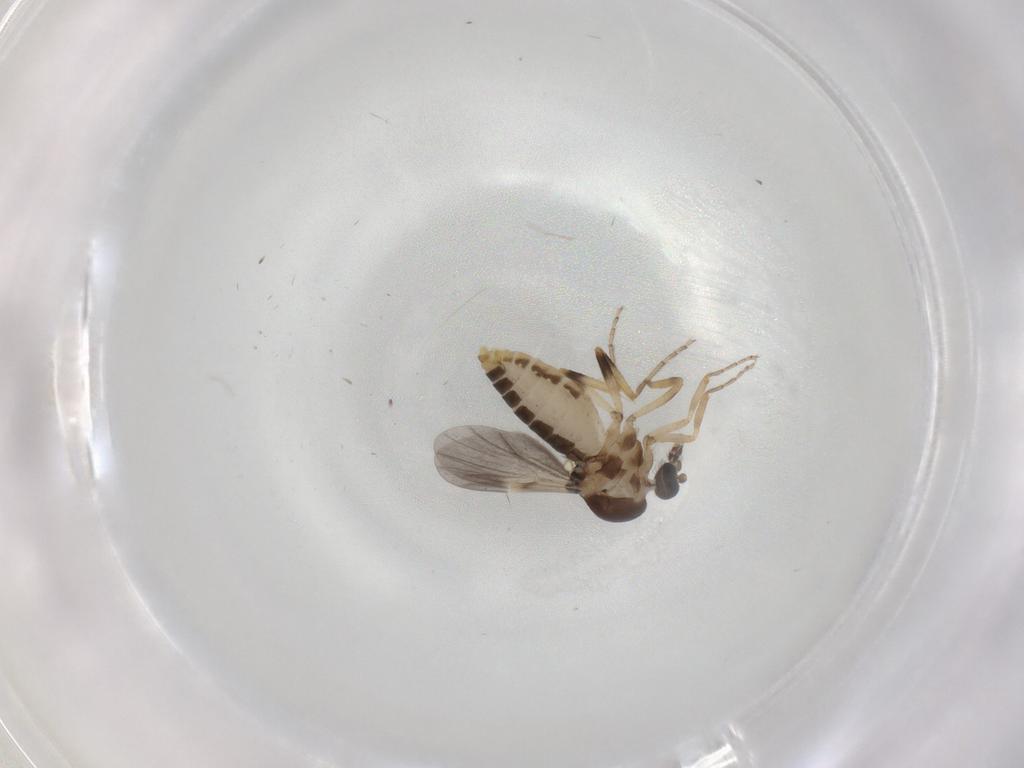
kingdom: Animalia
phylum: Arthropoda
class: Insecta
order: Diptera
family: Ceratopogonidae
